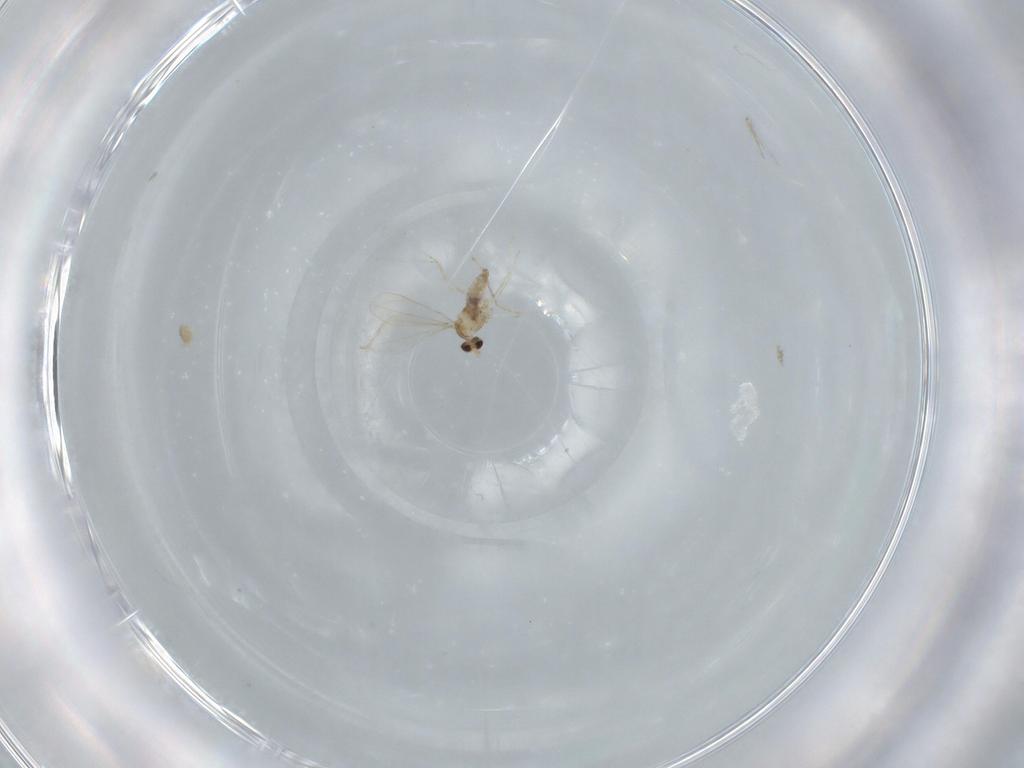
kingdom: Animalia
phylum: Arthropoda
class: Insecta
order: Diptera
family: Cecidomyiidae
